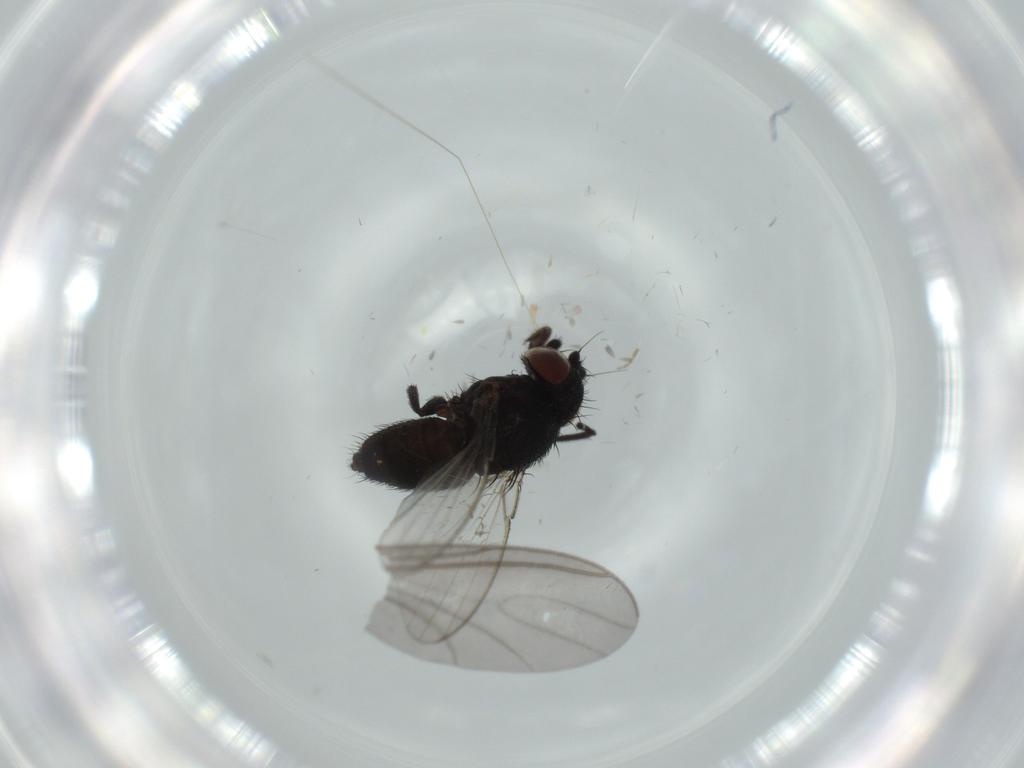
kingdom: Animalia
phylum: Arthropoda
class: Insecta
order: Diptera
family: Milichiidae
